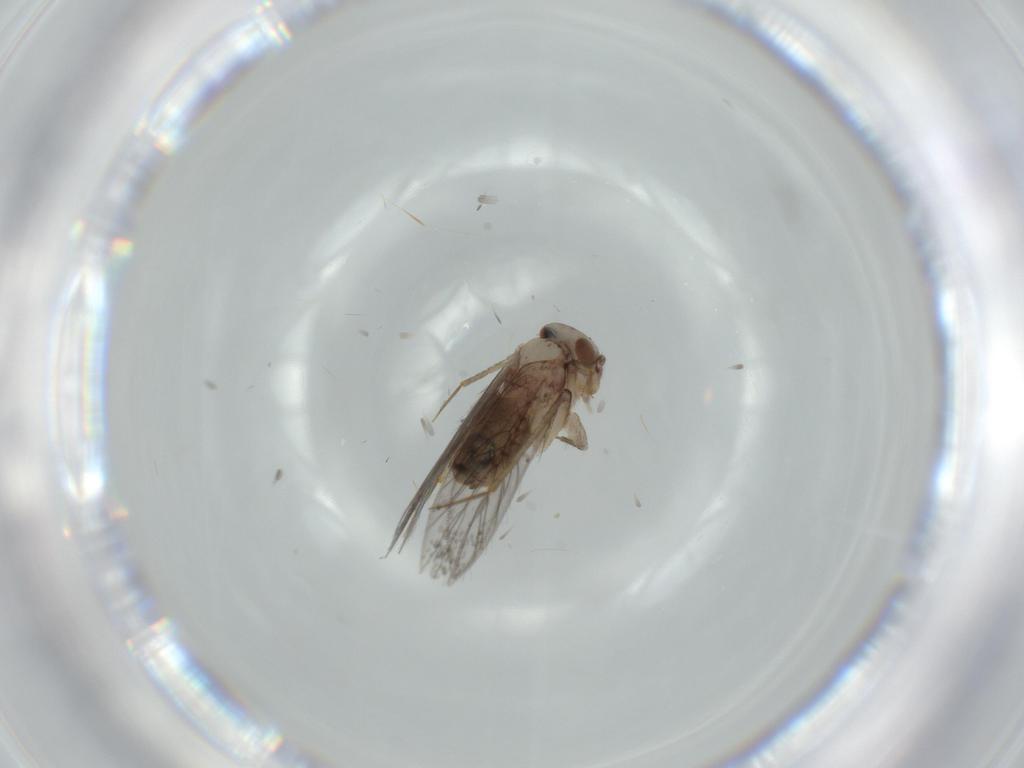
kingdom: Animalia
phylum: Arthropoda
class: Insecta
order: Psocodea
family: Lepidopsocidae
